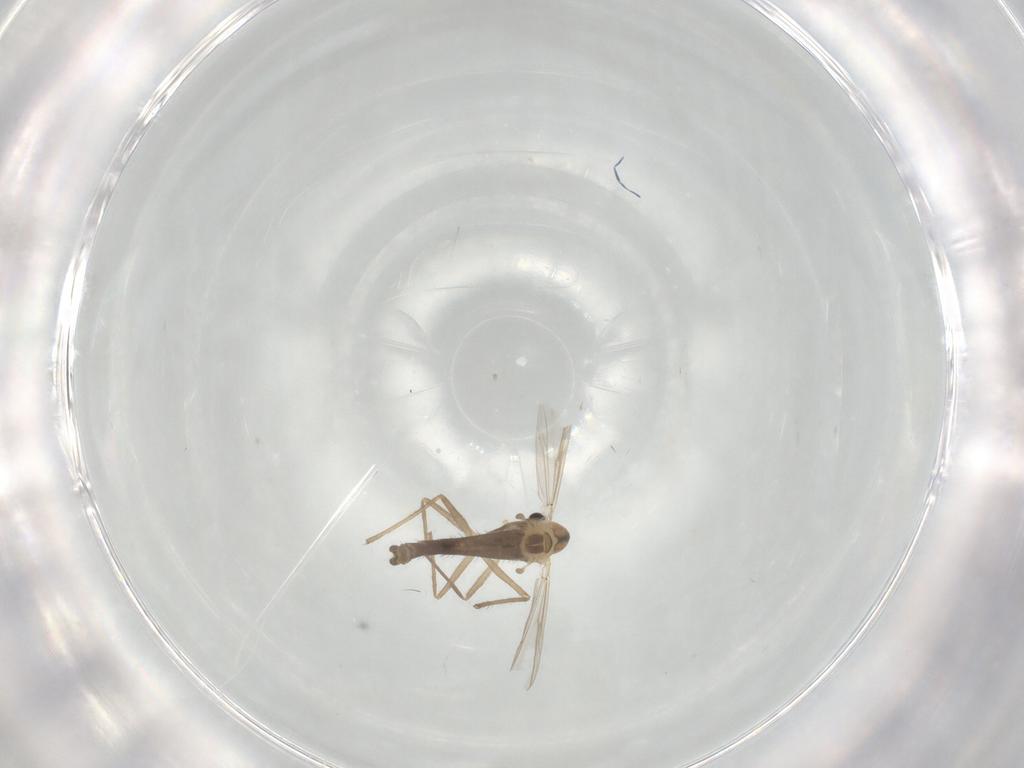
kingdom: Animalia
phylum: Arthropoda
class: Insecta
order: Diptera
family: Chironomidae
